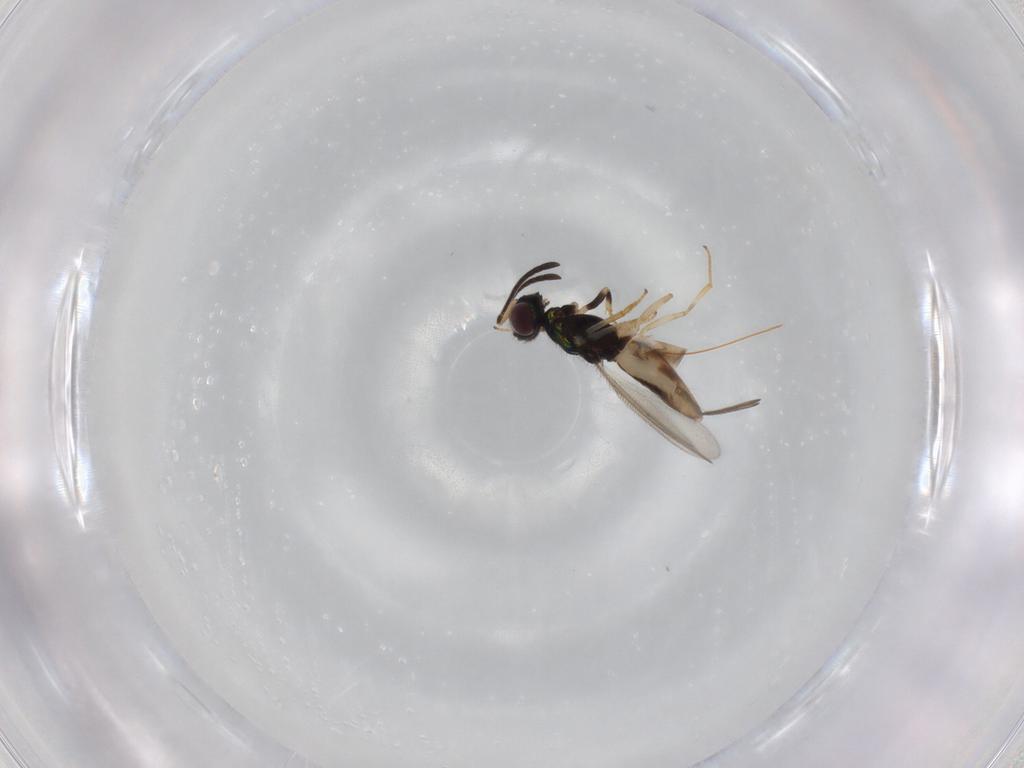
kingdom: Animalia
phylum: Arthropoda
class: Insecta
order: Hymenoptera
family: Eupelmidae
